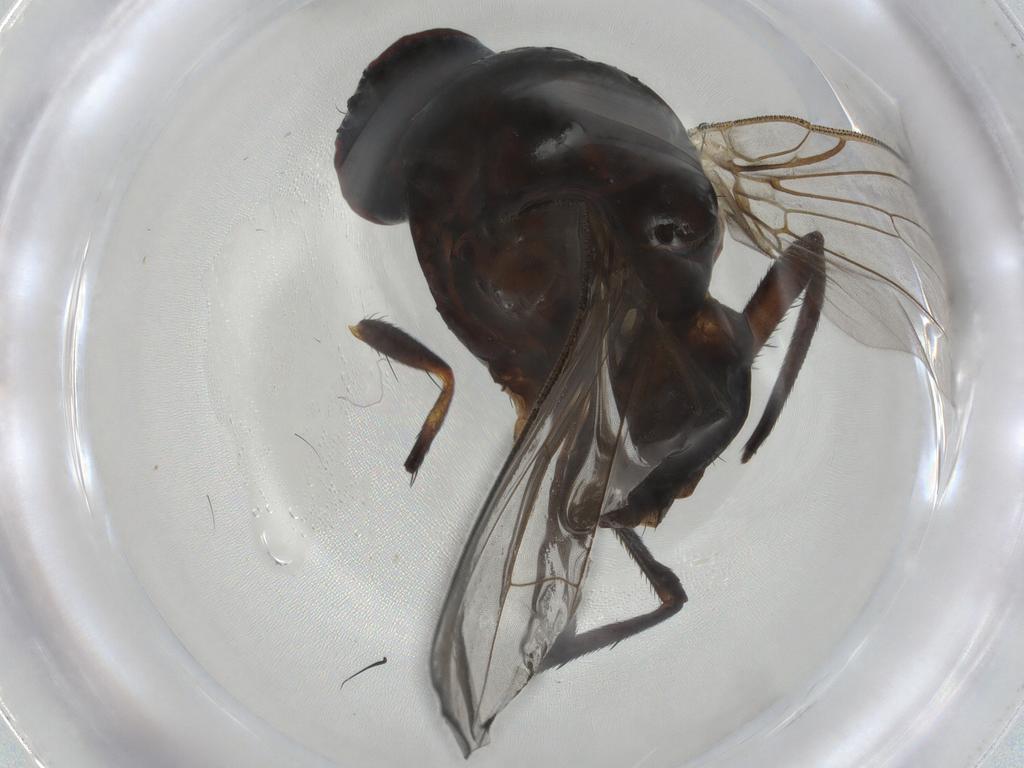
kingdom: Animalia
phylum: Arthropoda
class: Insecta
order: Diptera
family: Anthomyiidae
